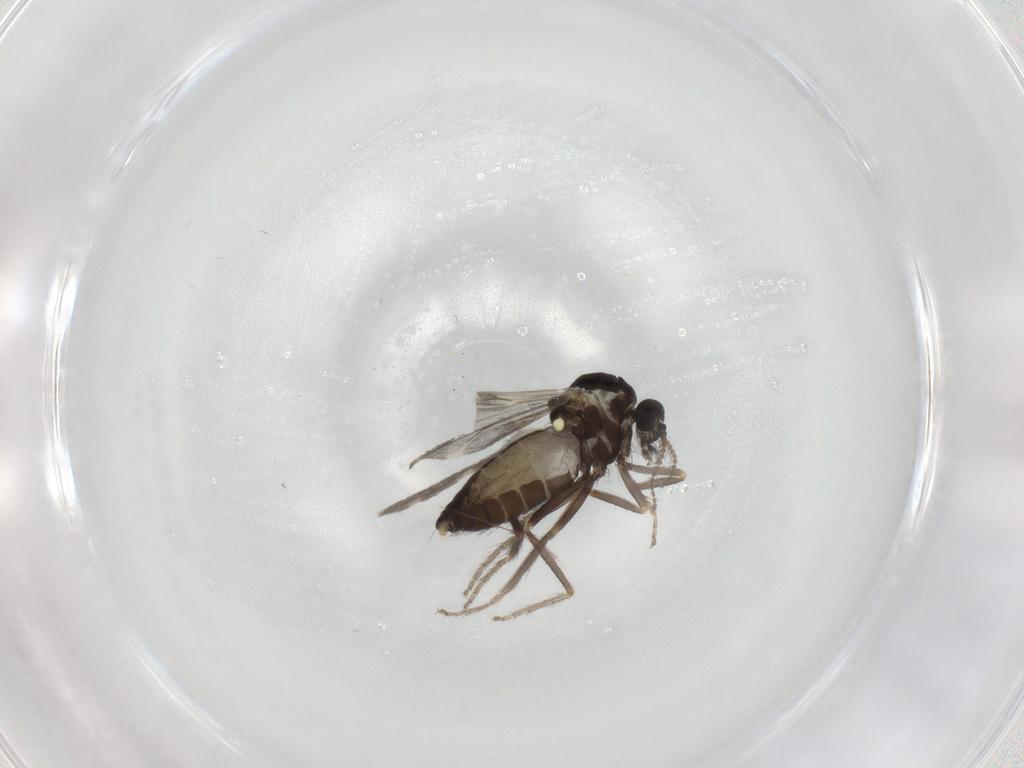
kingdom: Animalia
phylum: Arthropoda
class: Insecta
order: Diptera
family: Ceratopogonidae
